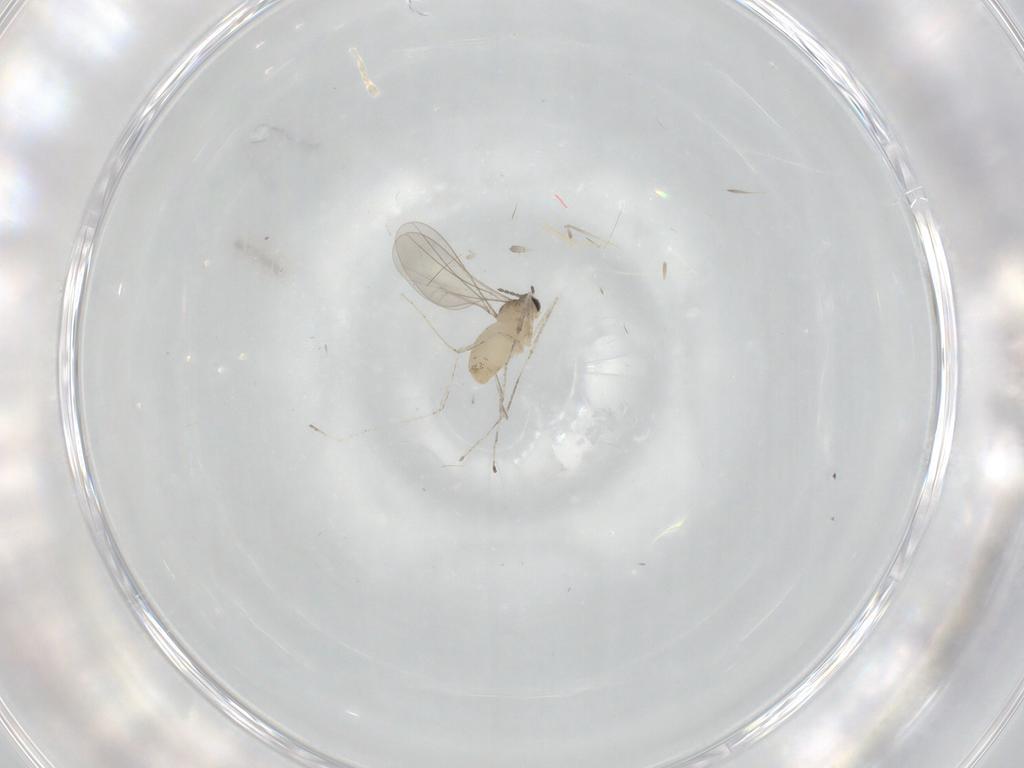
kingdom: Animalia
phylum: Arthropoda
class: Insecta
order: Diptera
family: Cecidomyiidae
